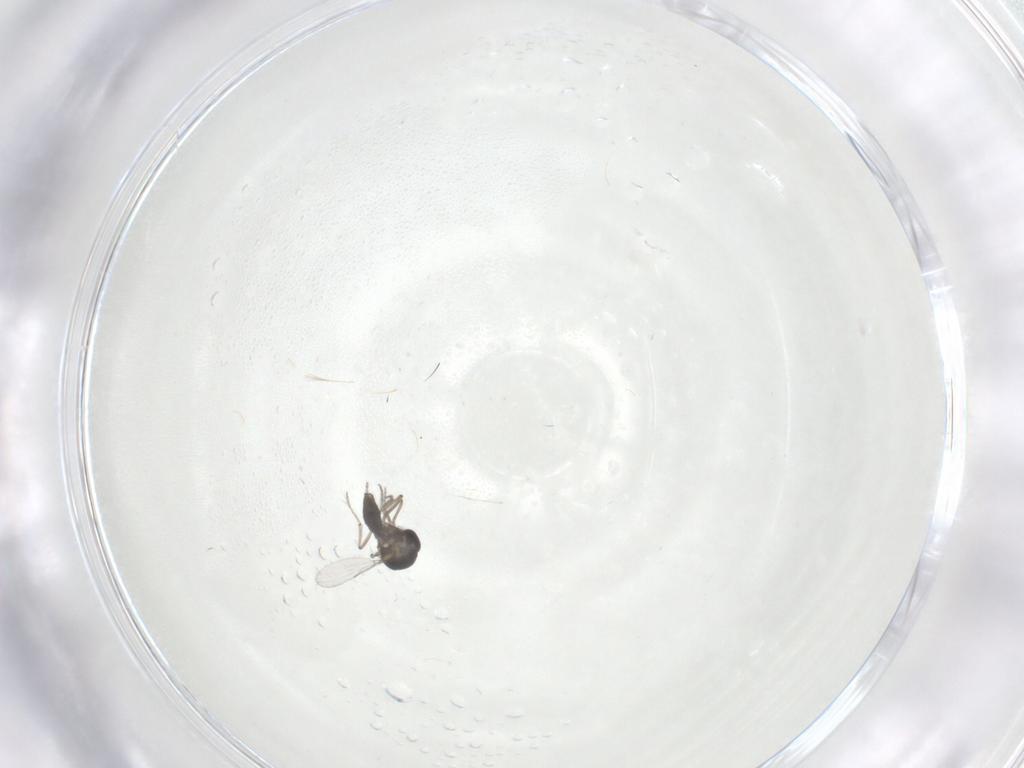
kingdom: Animalia
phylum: Arthropoda
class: Insecta
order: Diptera
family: Ceratopogonidae
